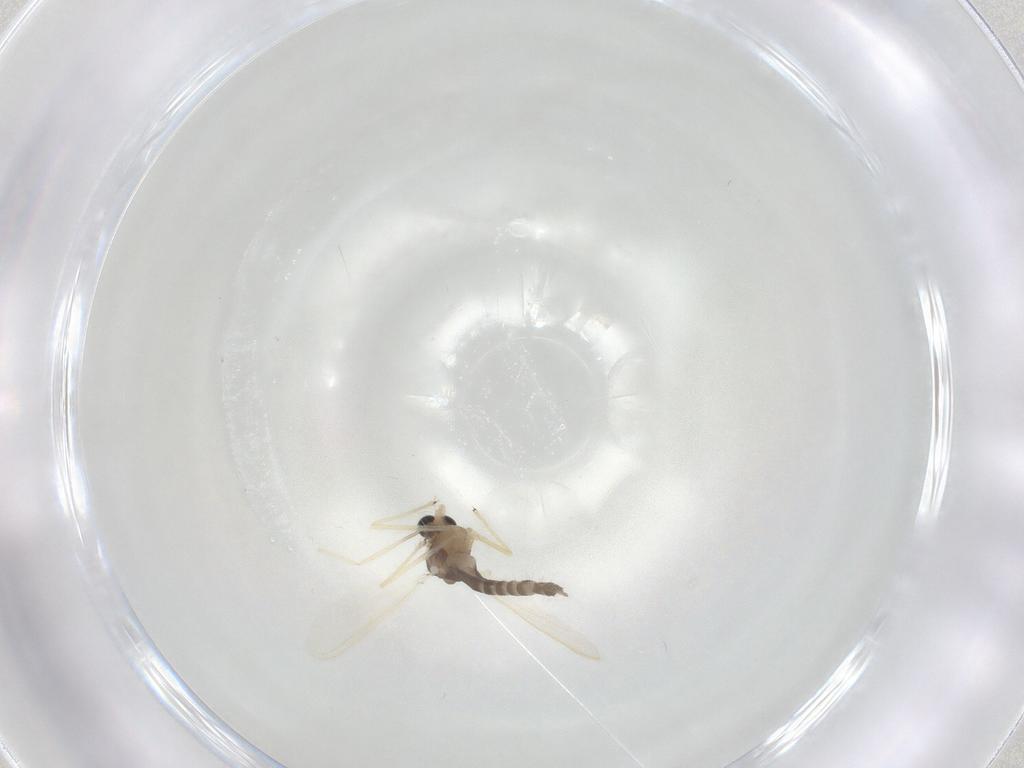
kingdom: Animalia
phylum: Arthropoda
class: Insecta
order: Diptera
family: Chironomidae
